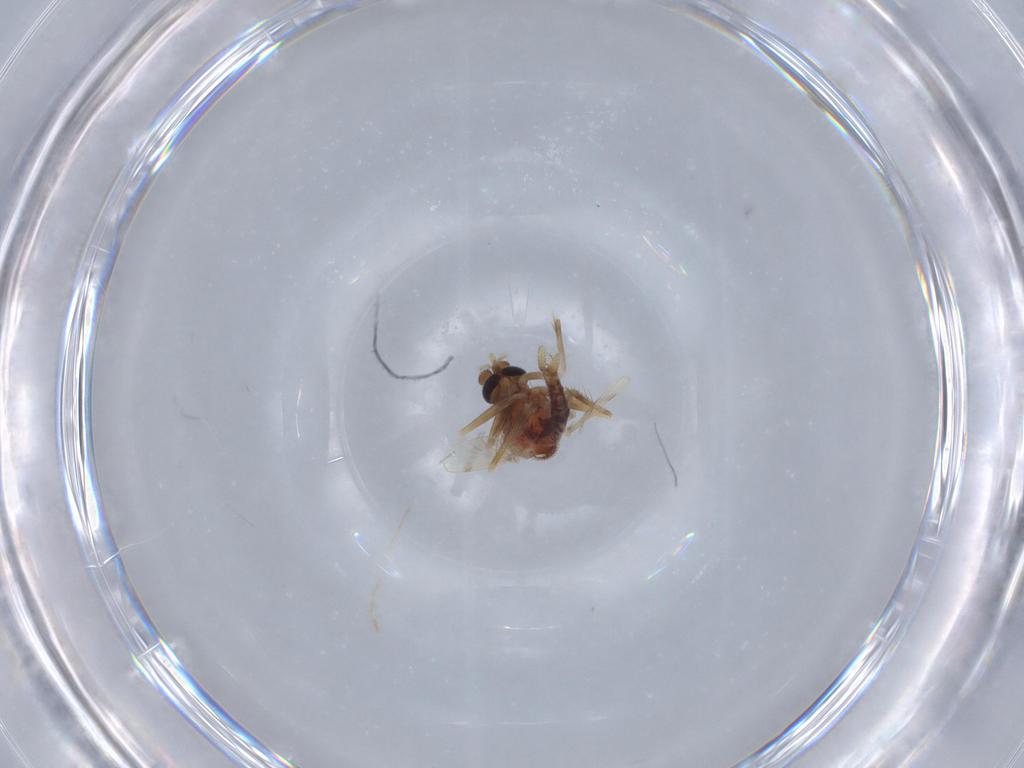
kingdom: Animalia
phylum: Arthropoda
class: Insecta
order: Diptera
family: Corethrellidae
